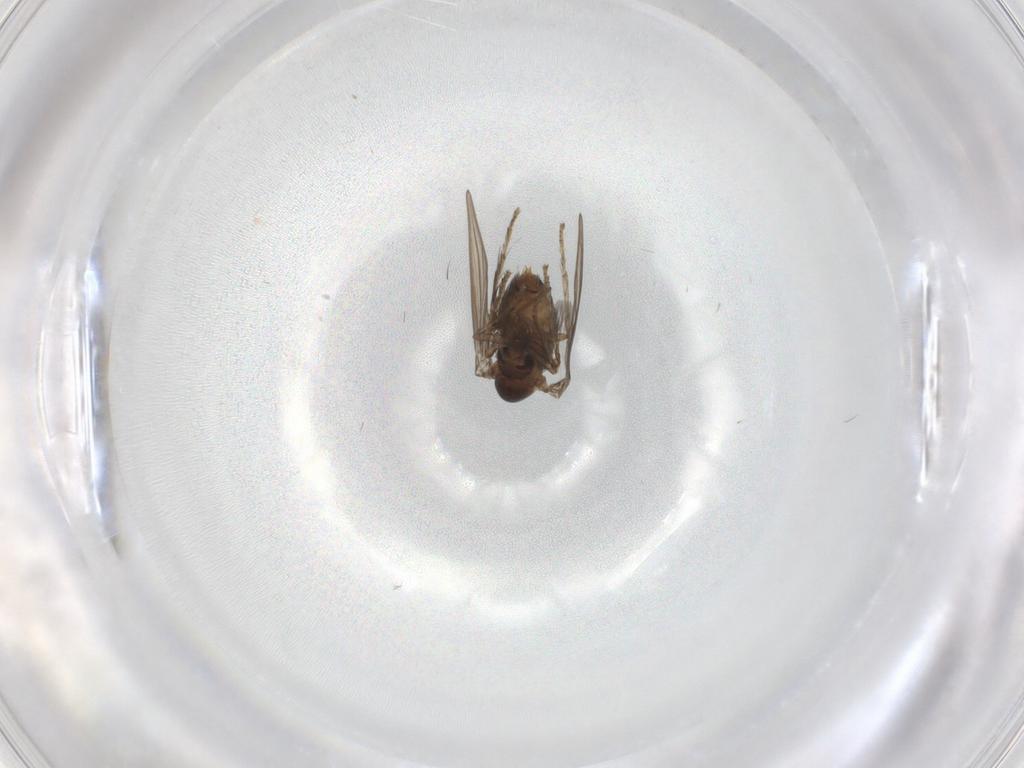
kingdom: Animalia
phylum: Arthropoda
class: Insecta
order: Diptera
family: Psychodidae
